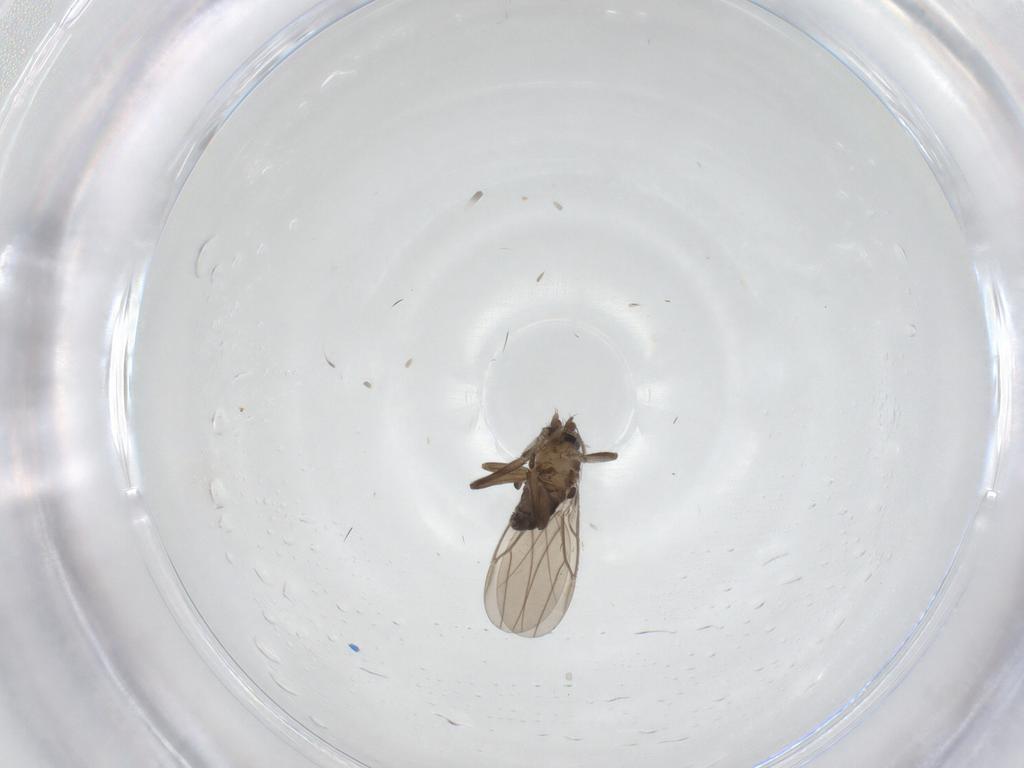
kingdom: Animalia
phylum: Arthropoda
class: Insecta
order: Diptera
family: Phoridae
